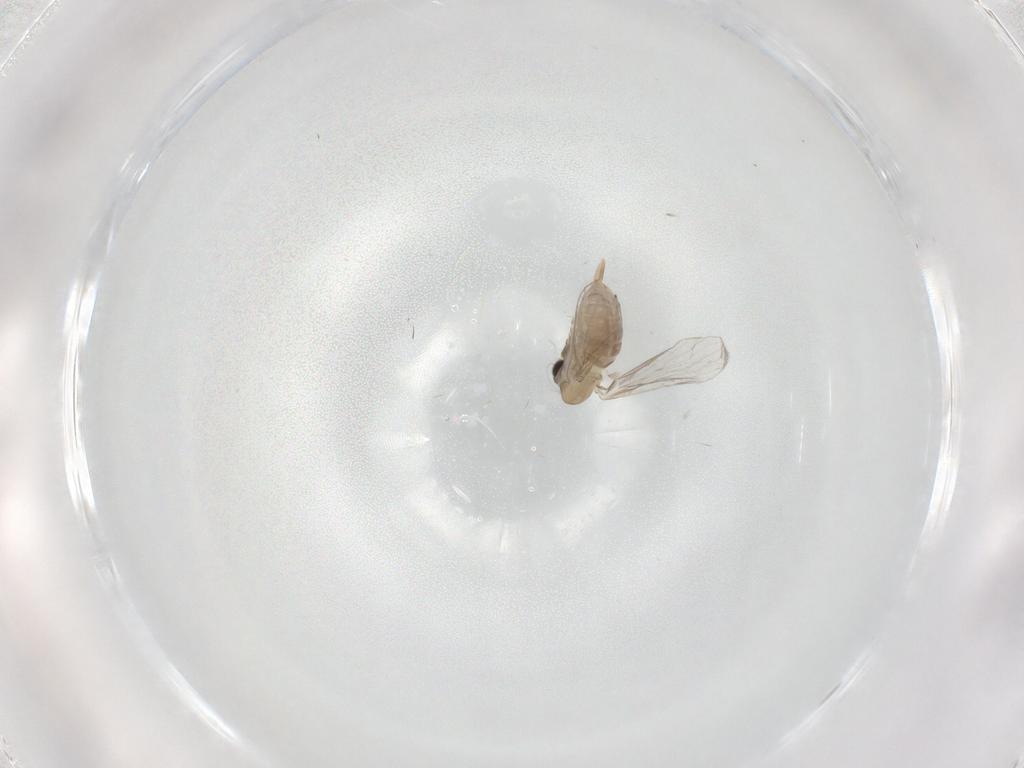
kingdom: Animalia
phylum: Arthropoda
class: Insecta
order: Diptera
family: Psychodidae
